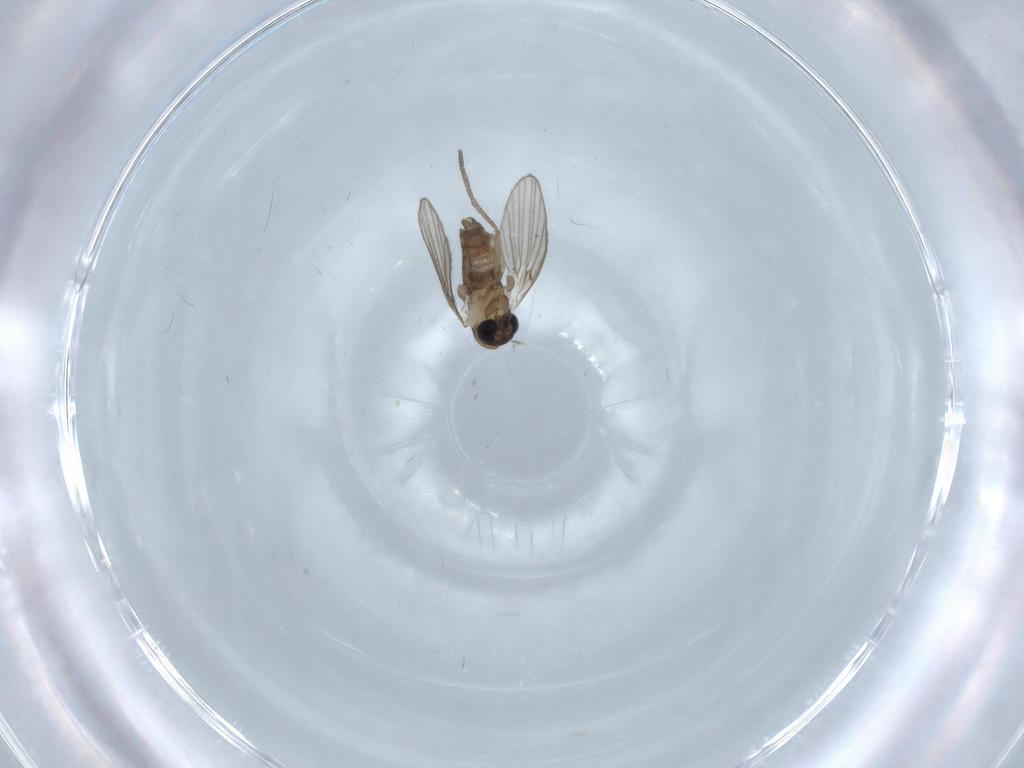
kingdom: Animalia
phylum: Arthropoda
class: Insecta
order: Diptera
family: Psychodidae
